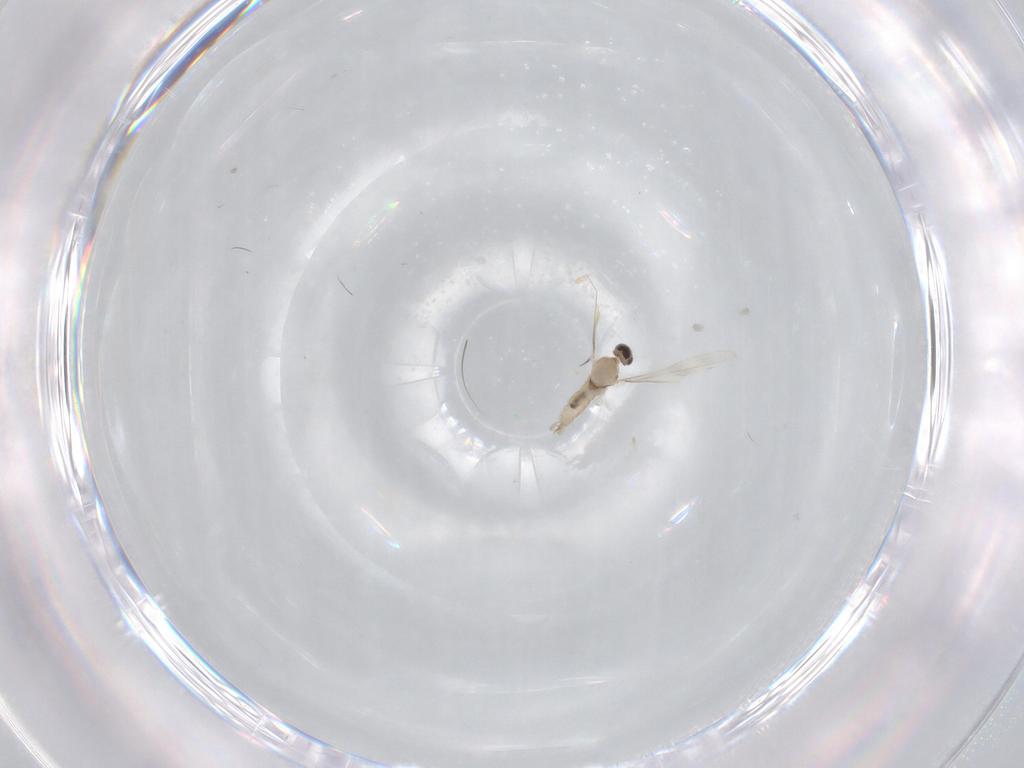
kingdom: Animalia
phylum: Arthropoda
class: Insecta
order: Diptera
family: Cecidomyiidae
